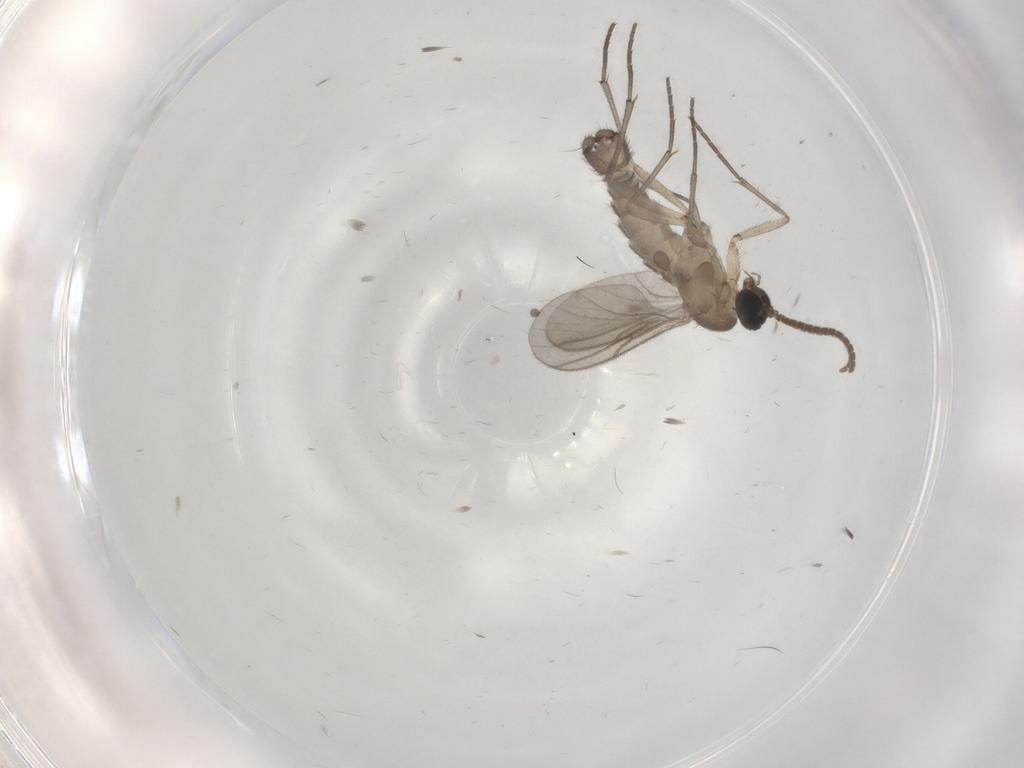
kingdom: Animalia
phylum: Arthropoda
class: Insecta
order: Diptera
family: Sciaridae
